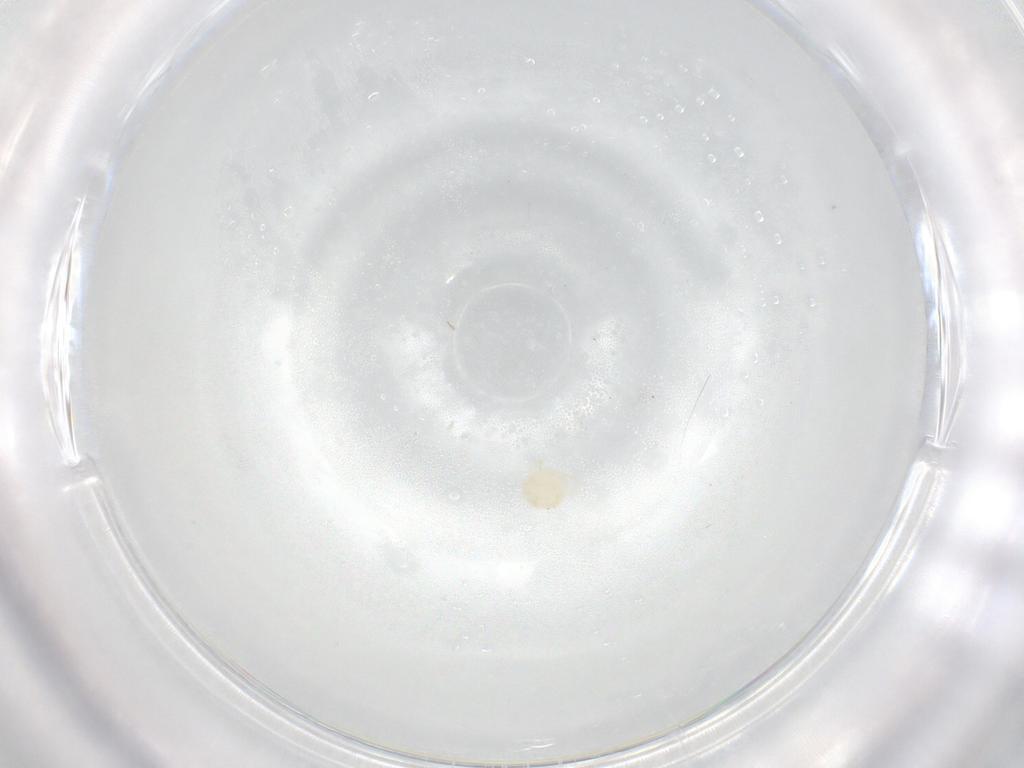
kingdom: Animalia
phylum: Arthropoda
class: Arachnida
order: Trombidiformes
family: Sperchontidae
